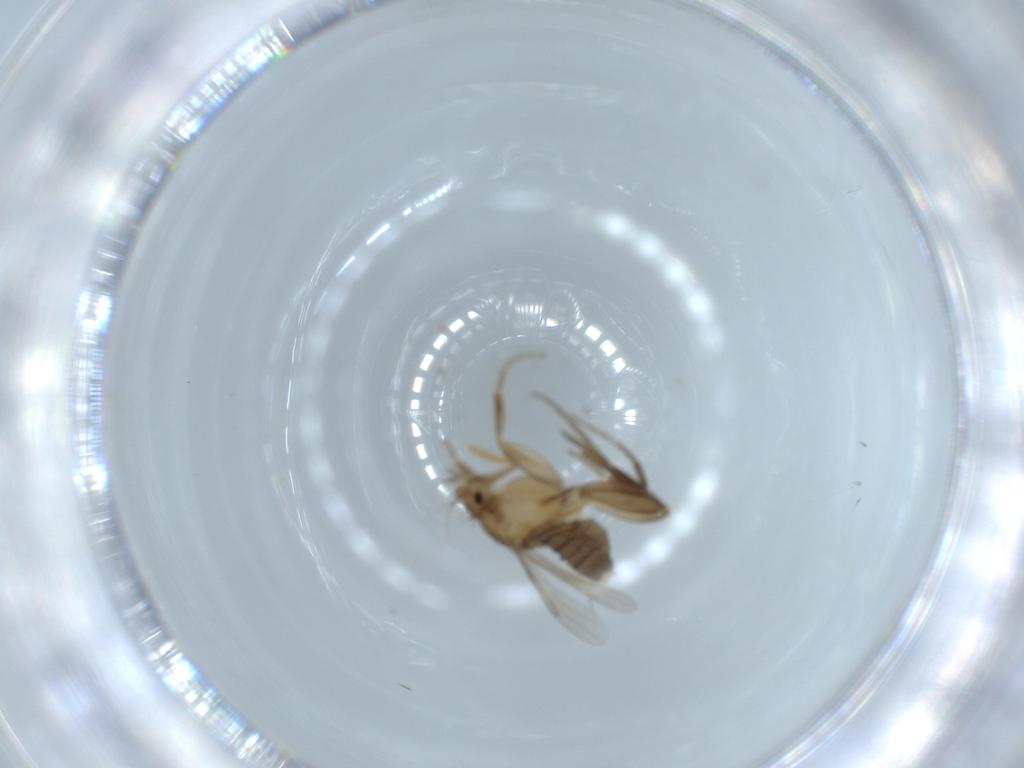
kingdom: Animalia
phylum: Arthropoda
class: Insecta
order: Diptera
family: Phoridae
